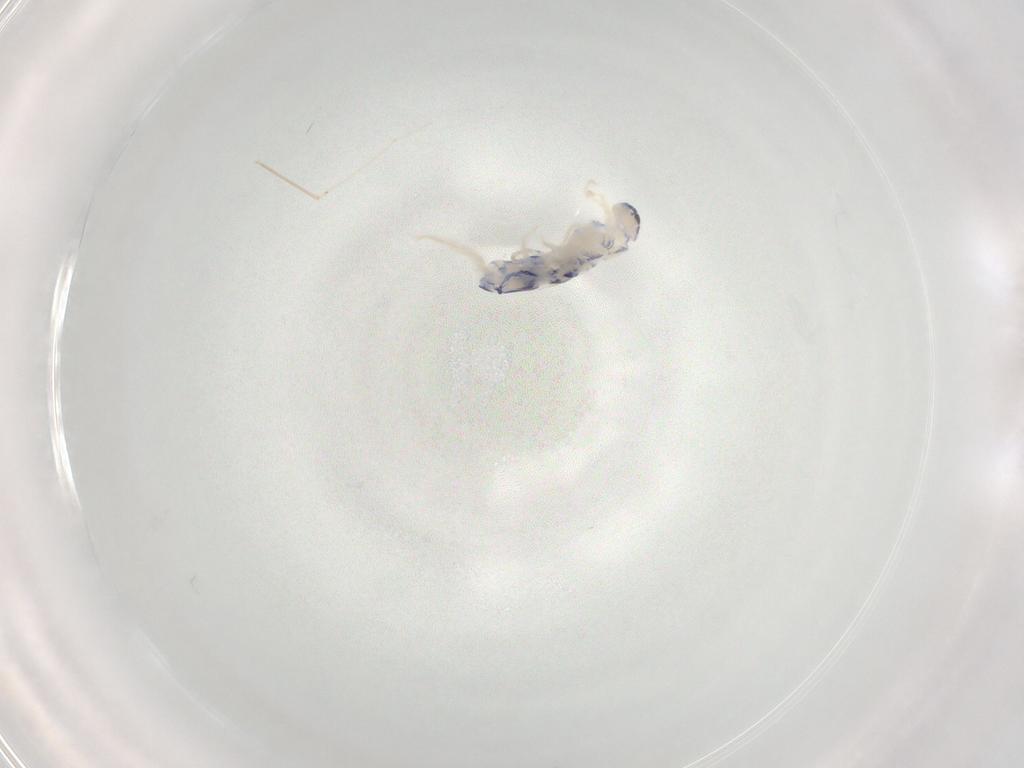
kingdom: Animalia
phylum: Arthropoda
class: Collembola
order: Entomobryomorpha
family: Entomobryidae
